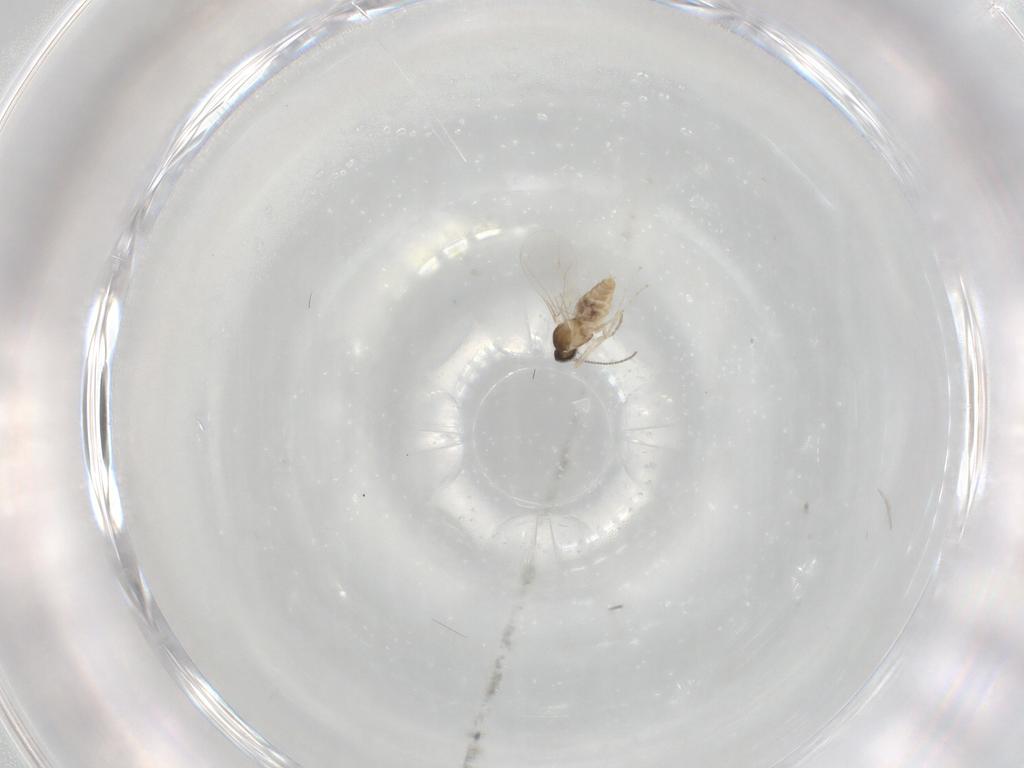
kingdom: Animalia
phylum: Arthropoda
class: Insecta
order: Diptera
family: Cecidomyiidae
